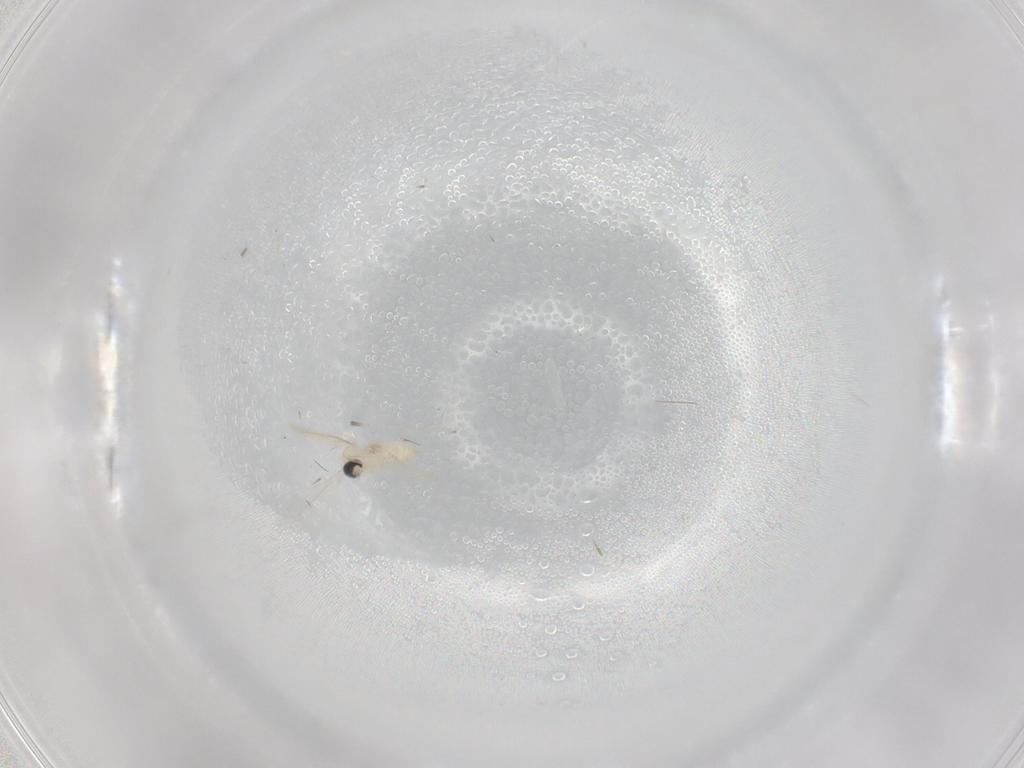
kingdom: Animalia
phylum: Arthropoda
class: Insecta
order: Diptera
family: Cecidomyiidae
